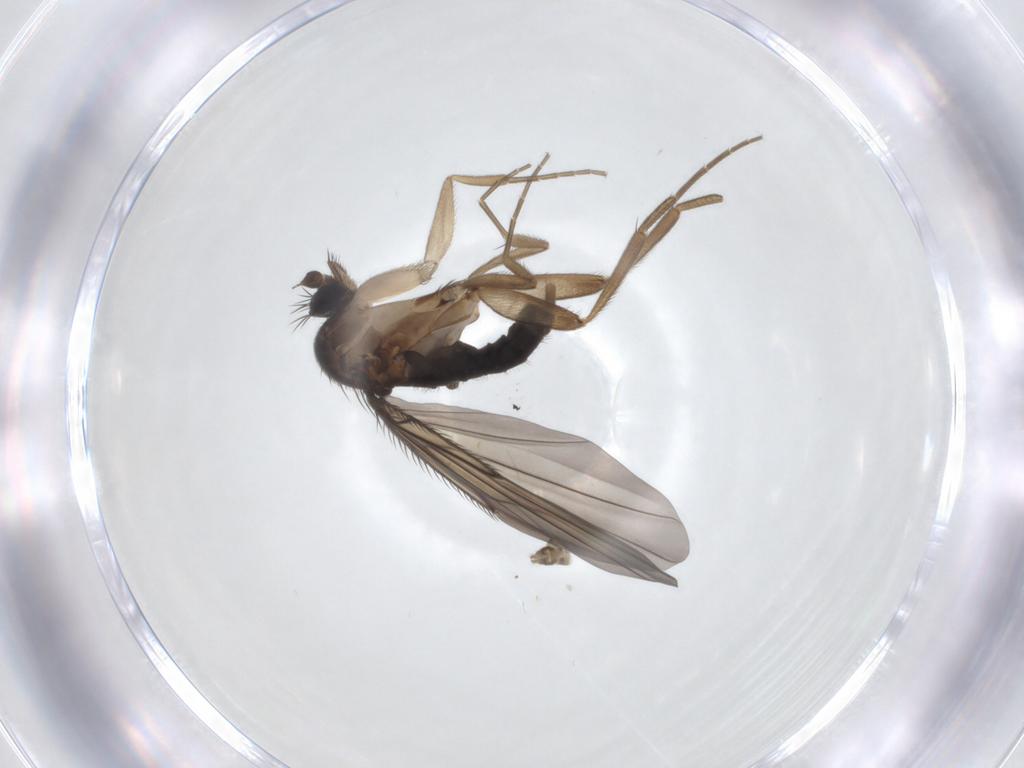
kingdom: Animalia
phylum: Arthropoda
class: Insecta
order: Diptera
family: Phoridae
